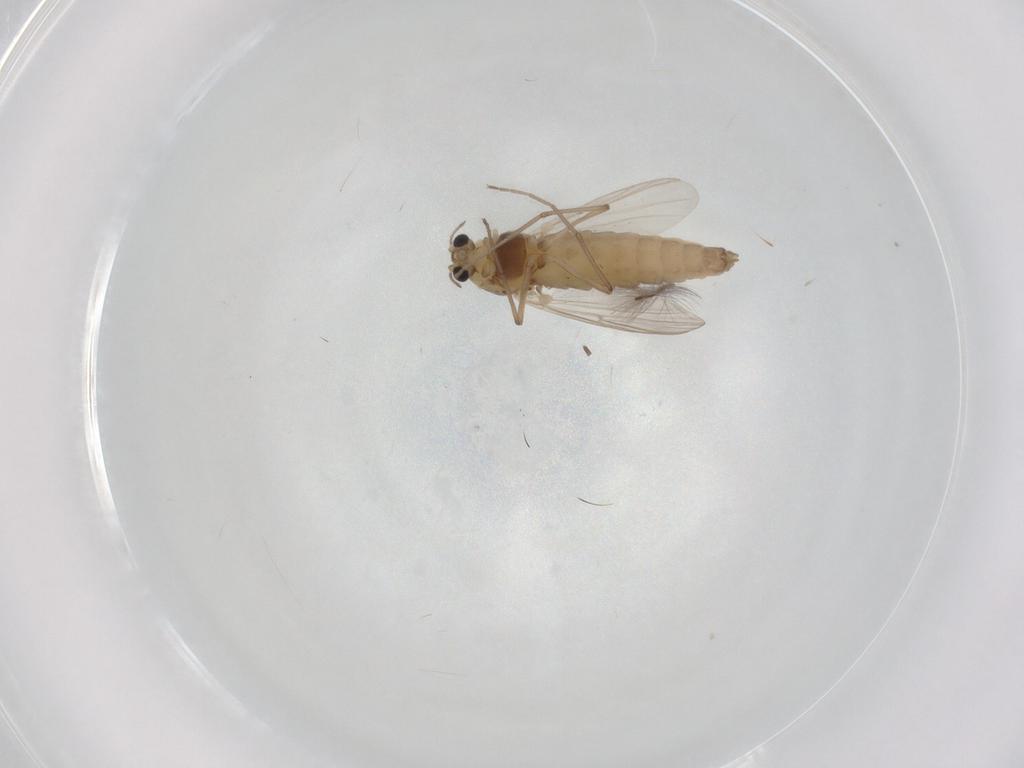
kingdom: Animalia
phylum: Arthropoda
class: Insecta
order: Diptera
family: Chironomidae
